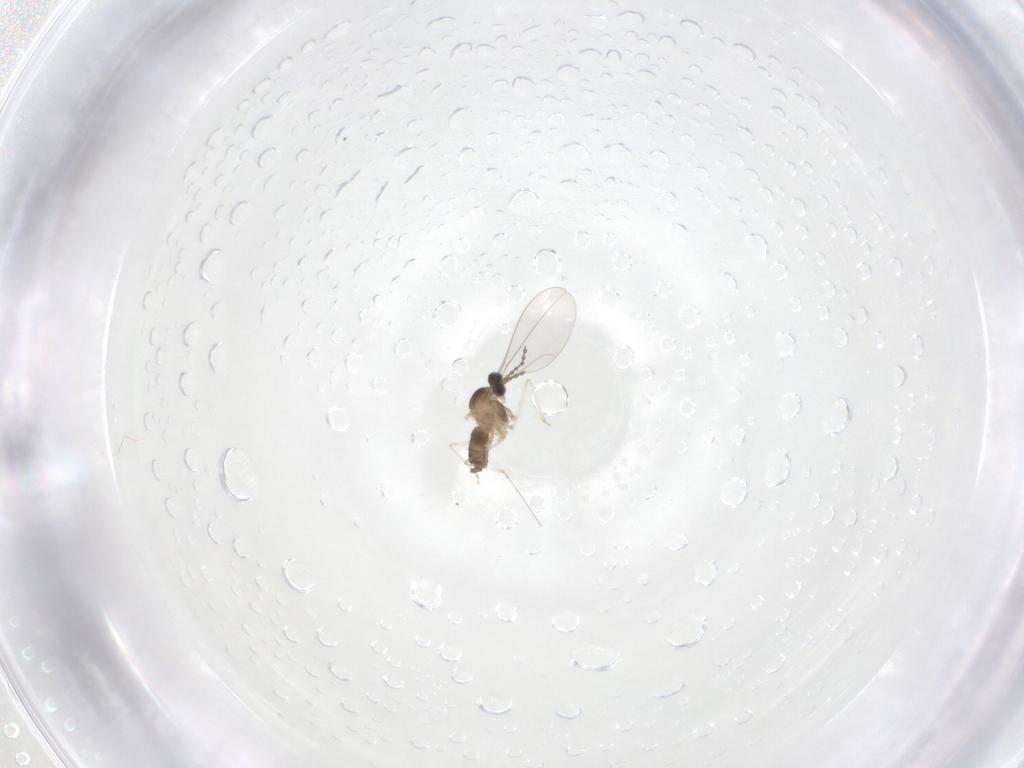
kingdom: Animalia
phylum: Arthropoda
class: Insecta
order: Diptera
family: Cecidomyiidae
